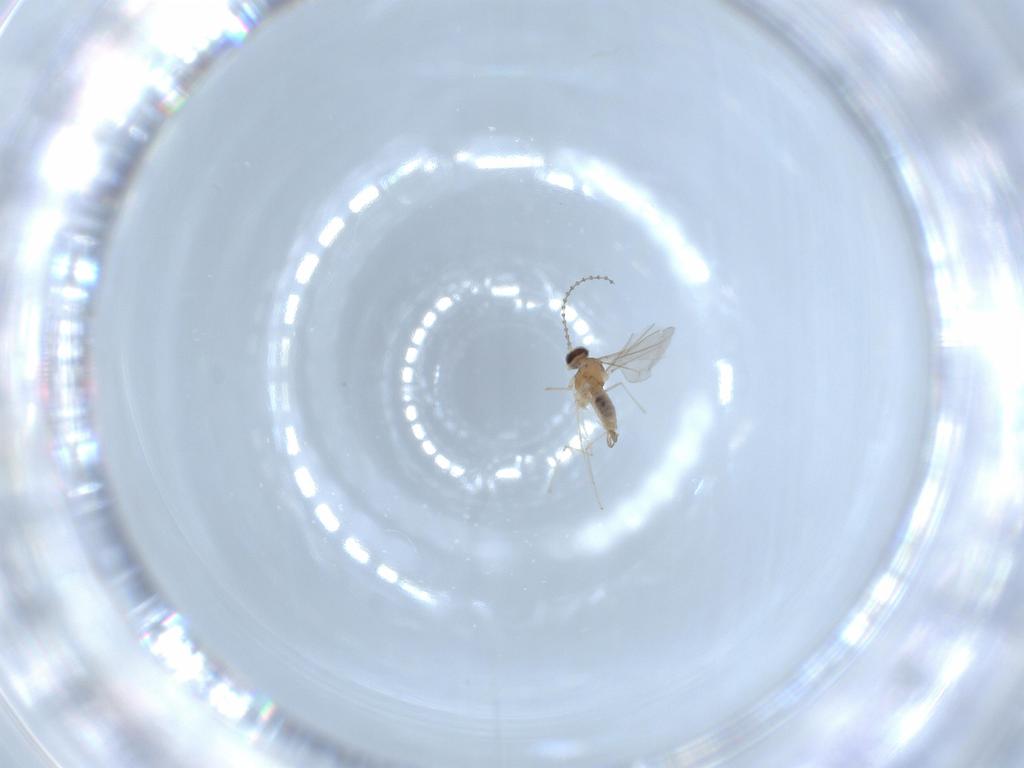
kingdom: Animalia
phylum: Arthropoda
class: Insecta
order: Diptera
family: Cecidomyiidae
